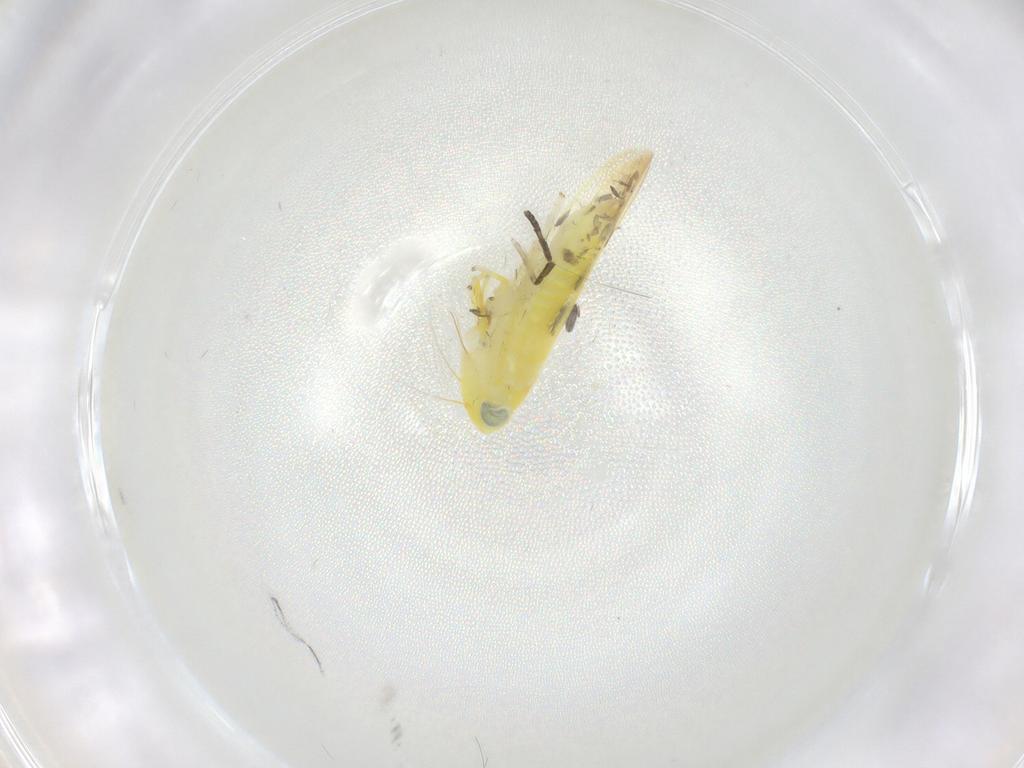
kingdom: Animalia
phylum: Arthropoda
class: Insecta
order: Hemiptera
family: Cicadellidae
